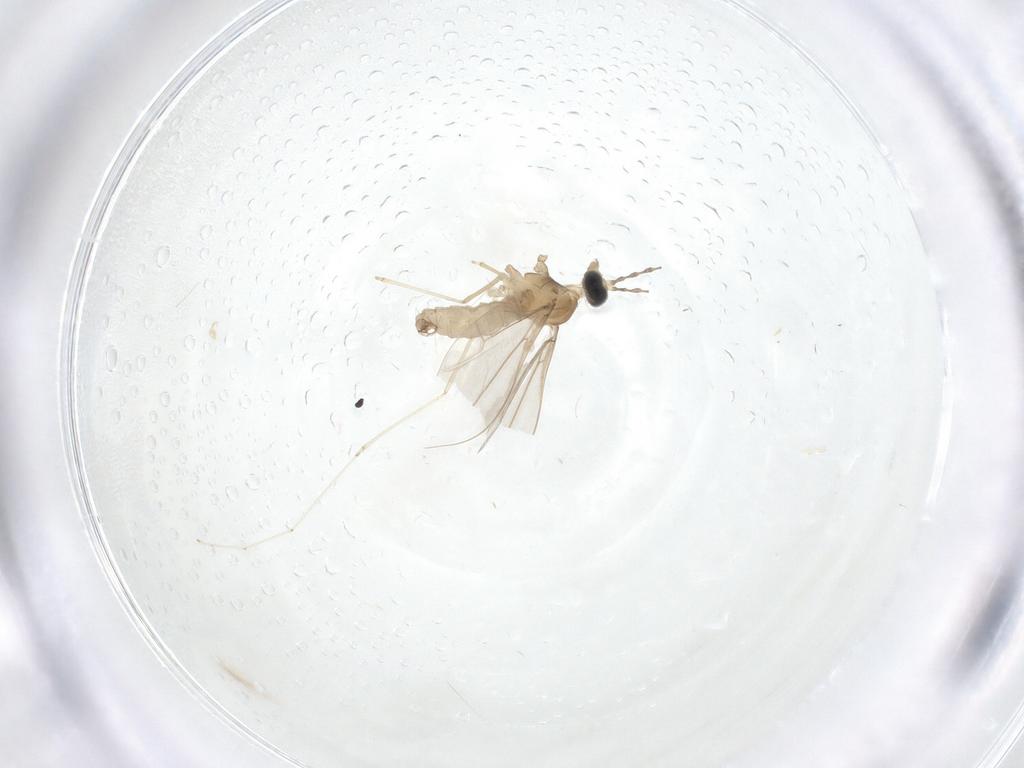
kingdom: Animalia
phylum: Arthropoda
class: Insecta
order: Diptera
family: Cecidomyiidae
